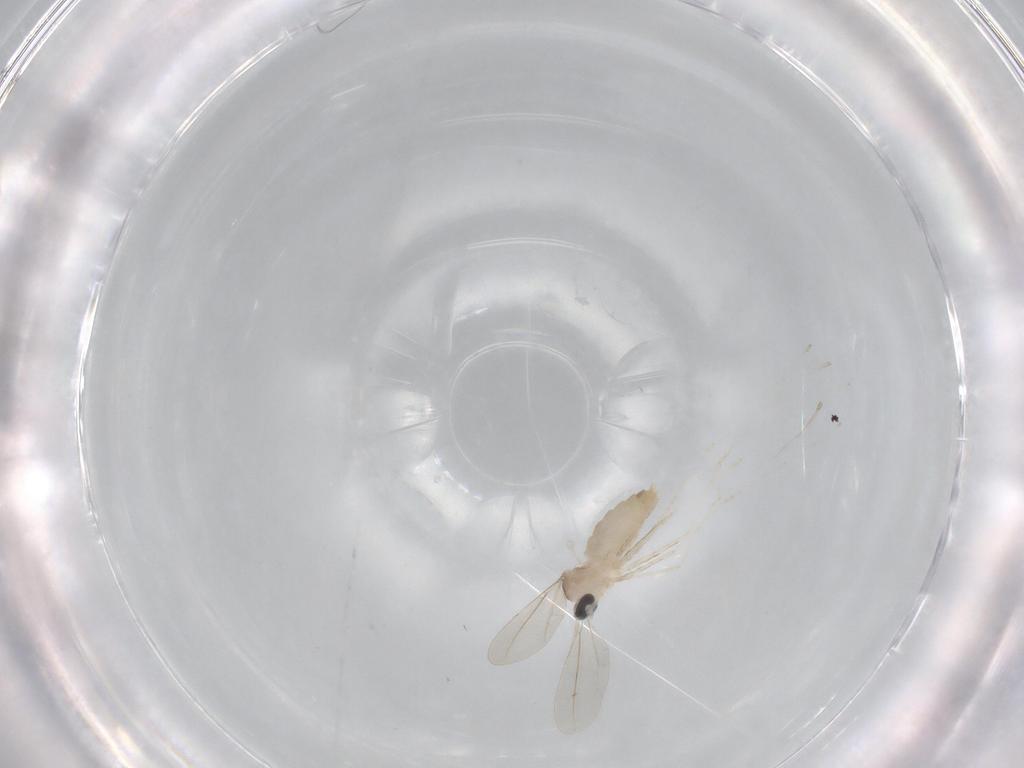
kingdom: Animalia
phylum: Arthropoda
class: Insecta
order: Diptera
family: Cecidomyiidae
